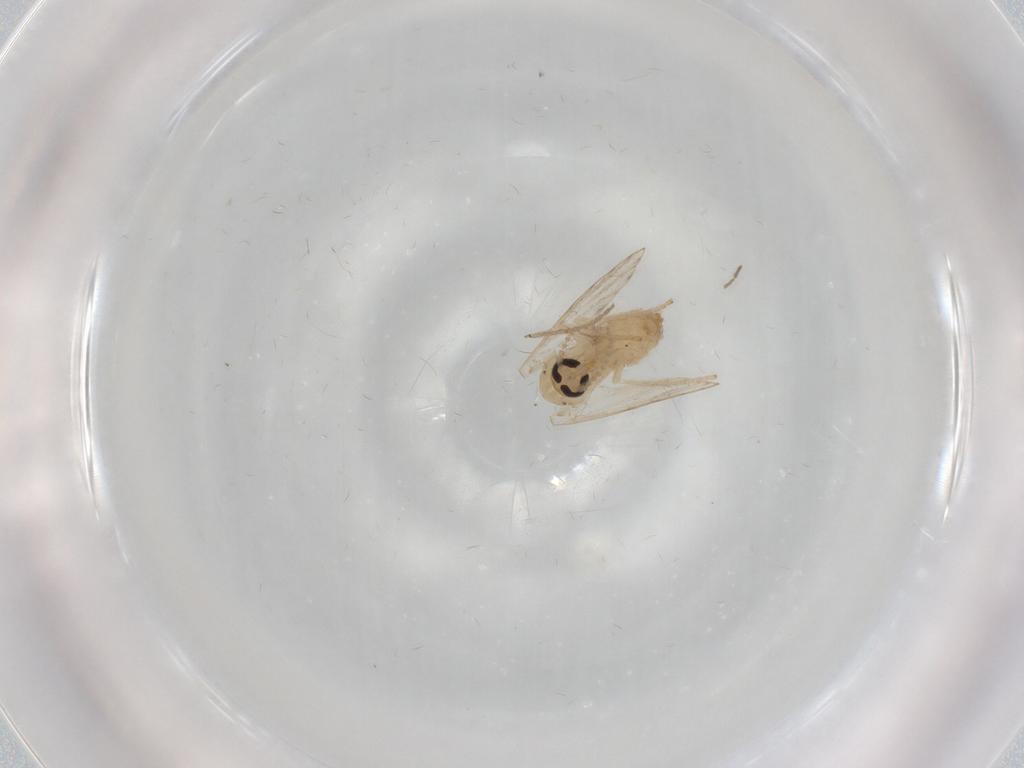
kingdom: Animalia
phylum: Arthropoda
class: Insecta
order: Diptera
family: Psychodidae
